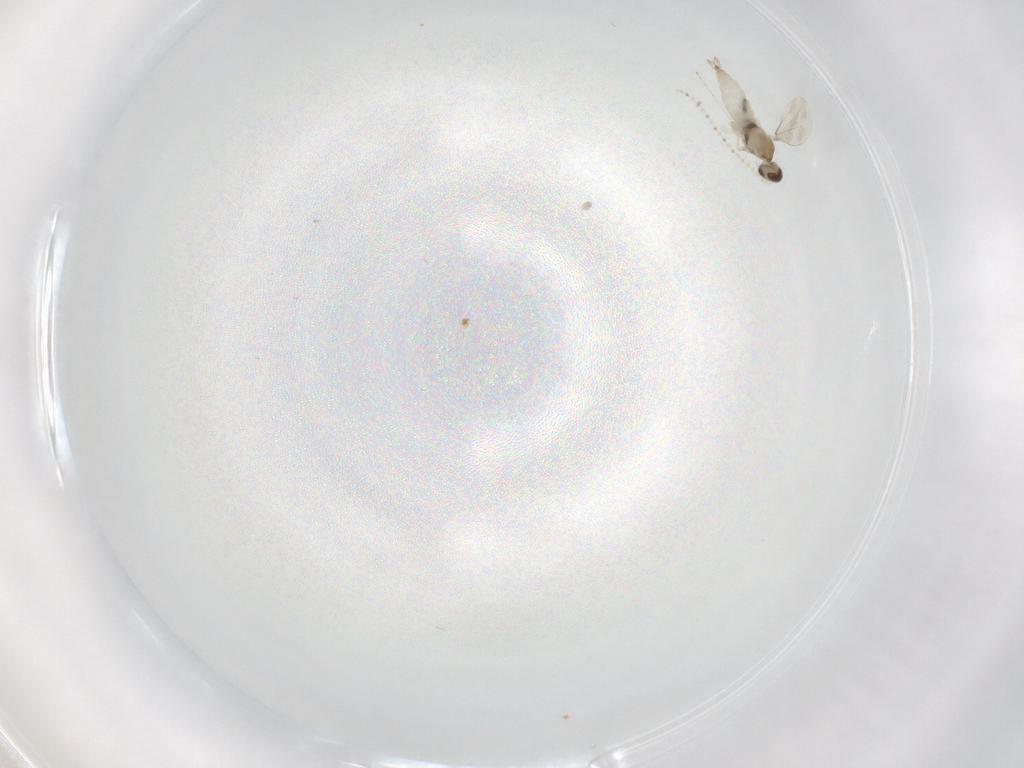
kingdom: Animalia
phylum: Arthropoda
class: Insecta
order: Diptera
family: Cecidomyiidae
